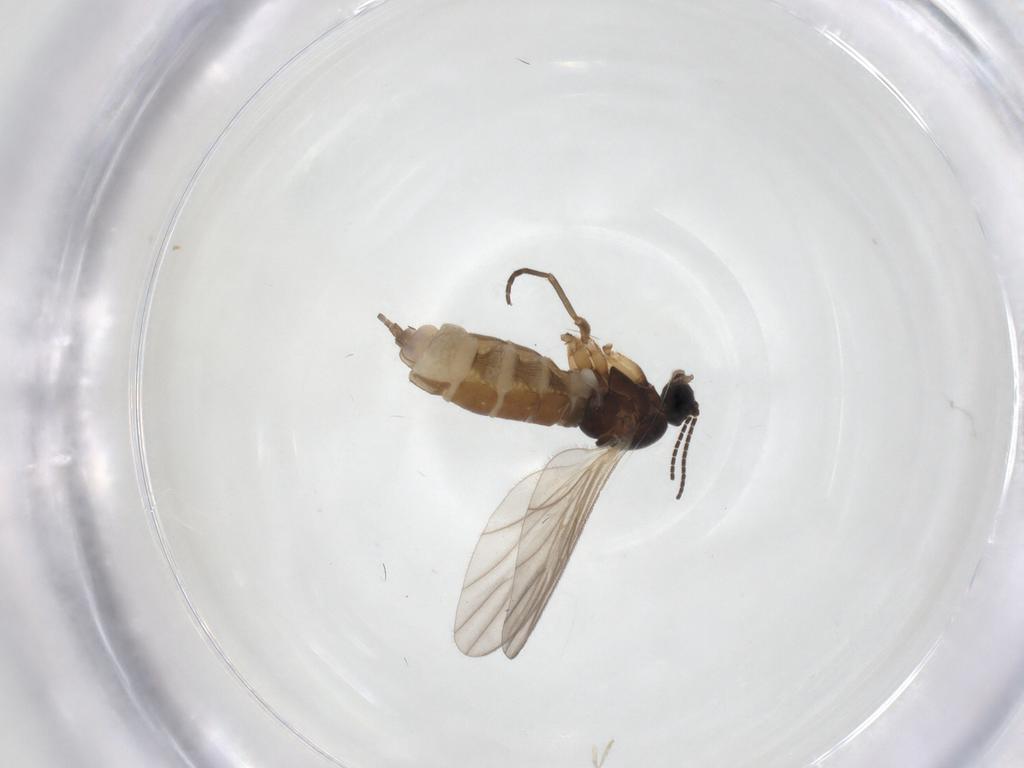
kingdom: Animalia
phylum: Arthropoda
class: Insecta
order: Diptera
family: Sciaridae
